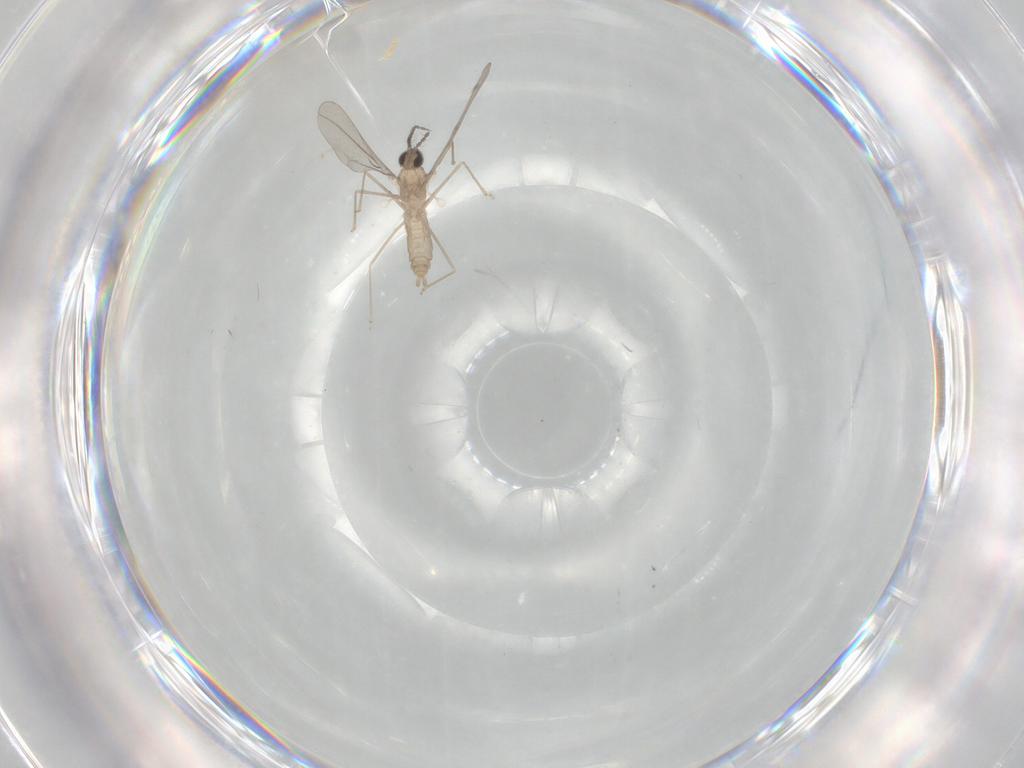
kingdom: Animalia
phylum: Arthropoda
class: Insecta
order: Diptera
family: Cecidomyiidae
